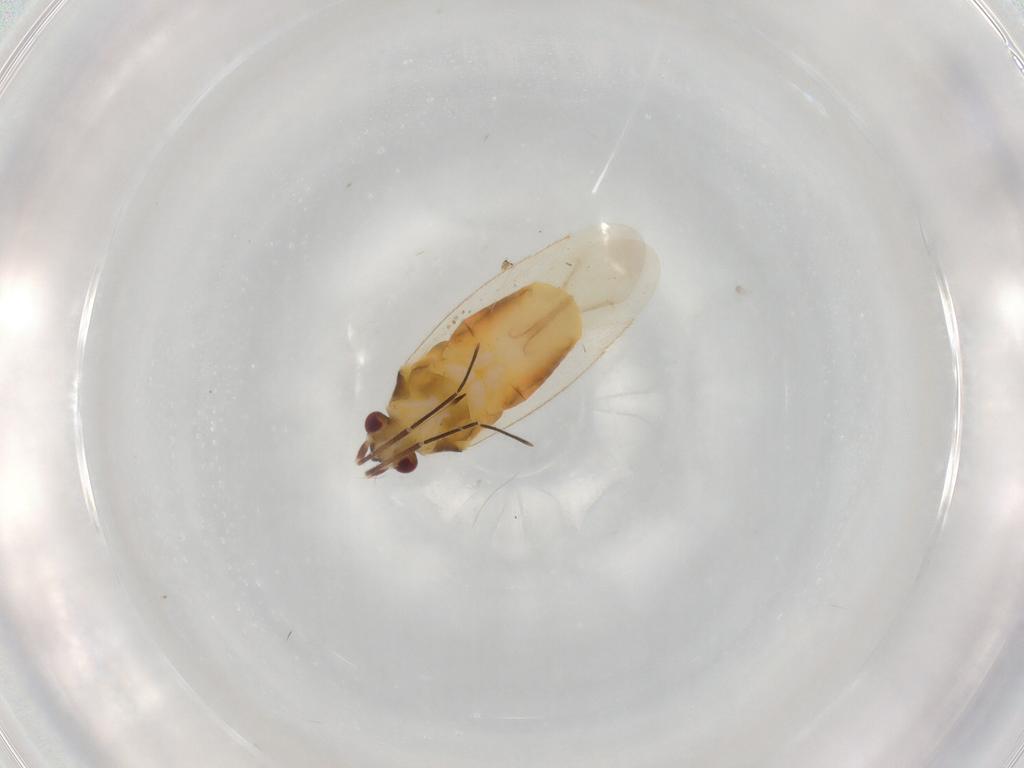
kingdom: Animalia
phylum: Arthropoda
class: Insecta
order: Hemiptera
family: Miridae
